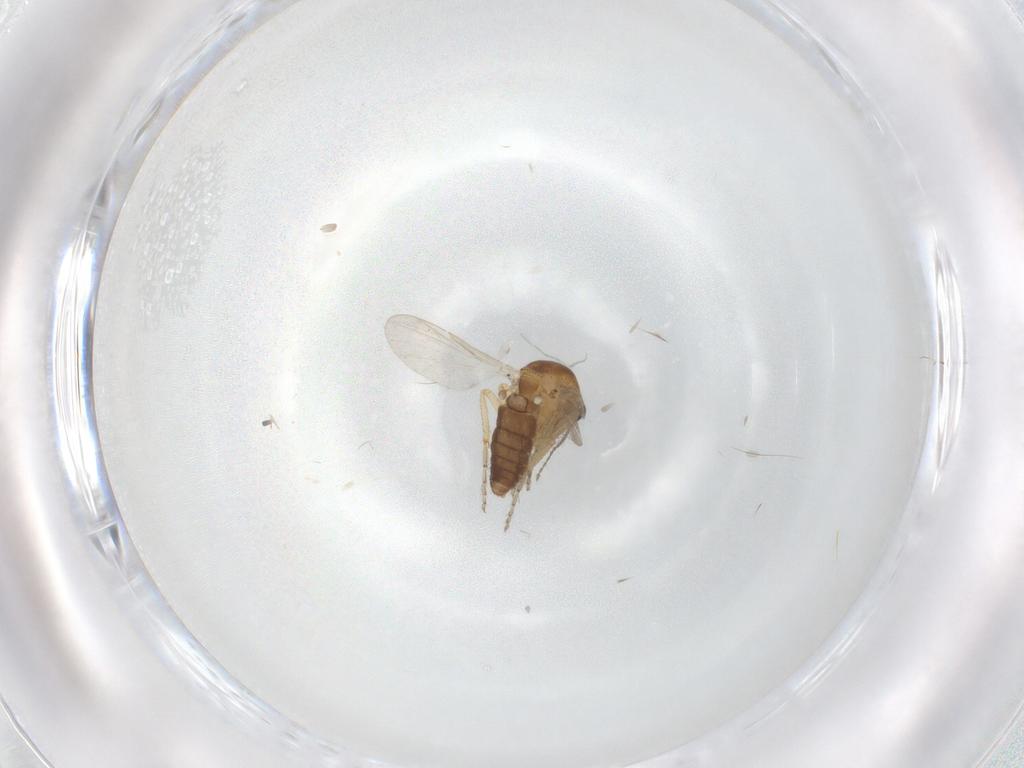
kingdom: Animalia
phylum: Arthropoda
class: Insecta
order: Diptera
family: Ceratopogonidae
